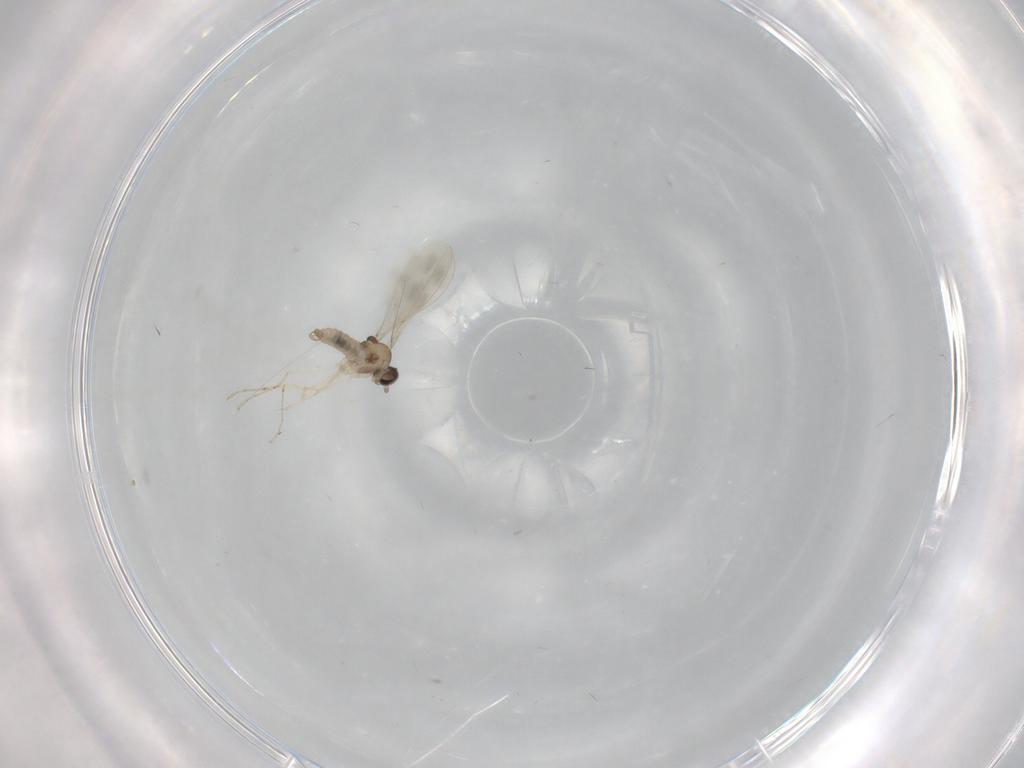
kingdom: Animalia
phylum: Arthropoda
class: Insecta
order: Diptera
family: Cecidomyiidae
